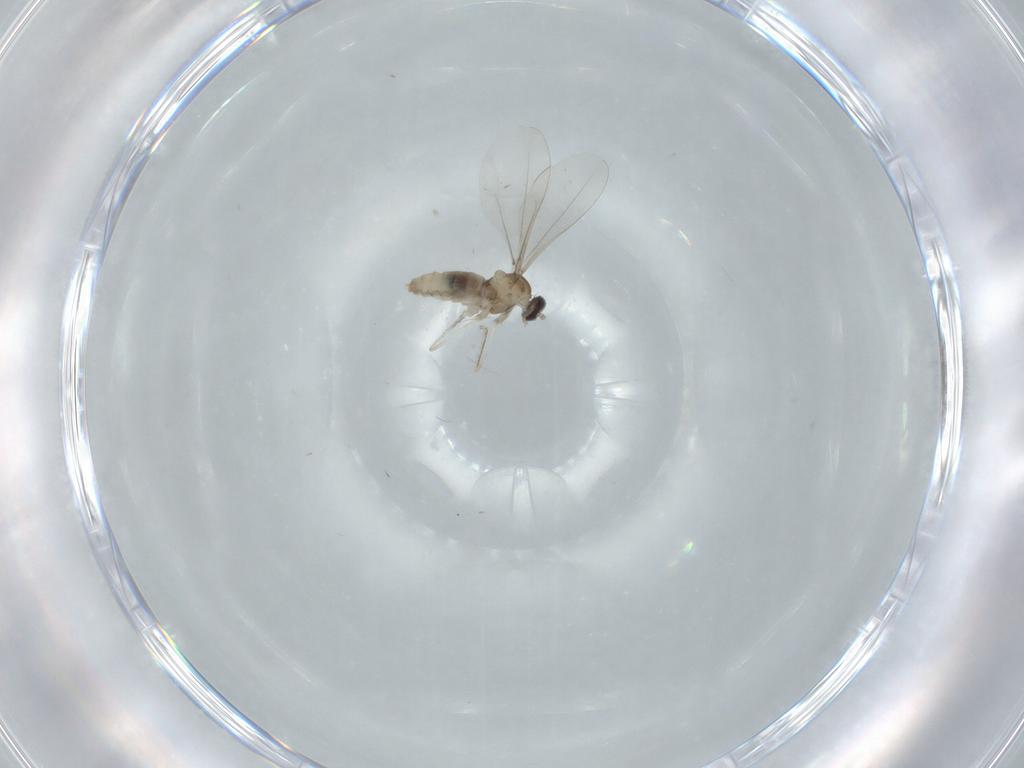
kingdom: Animalia
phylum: Arthropoda
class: Insecta
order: Diptera
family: Cecidomyiidae
